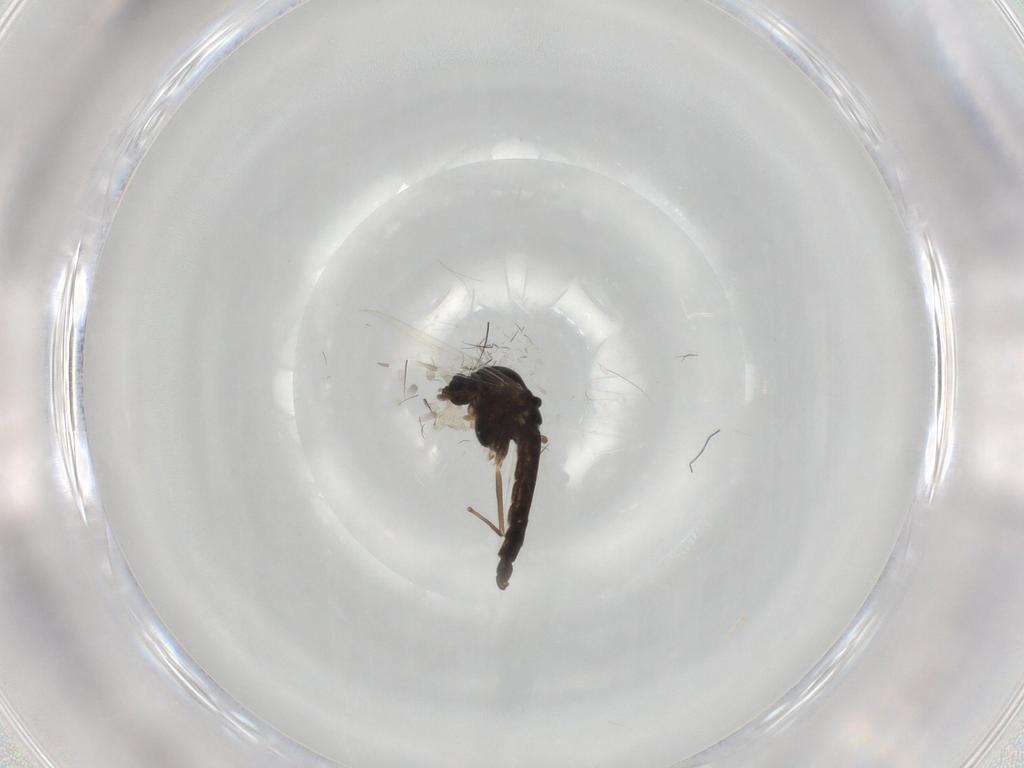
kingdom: Animalia
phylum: Arthropoda
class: Insecta
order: Diptera
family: Chironomidae
